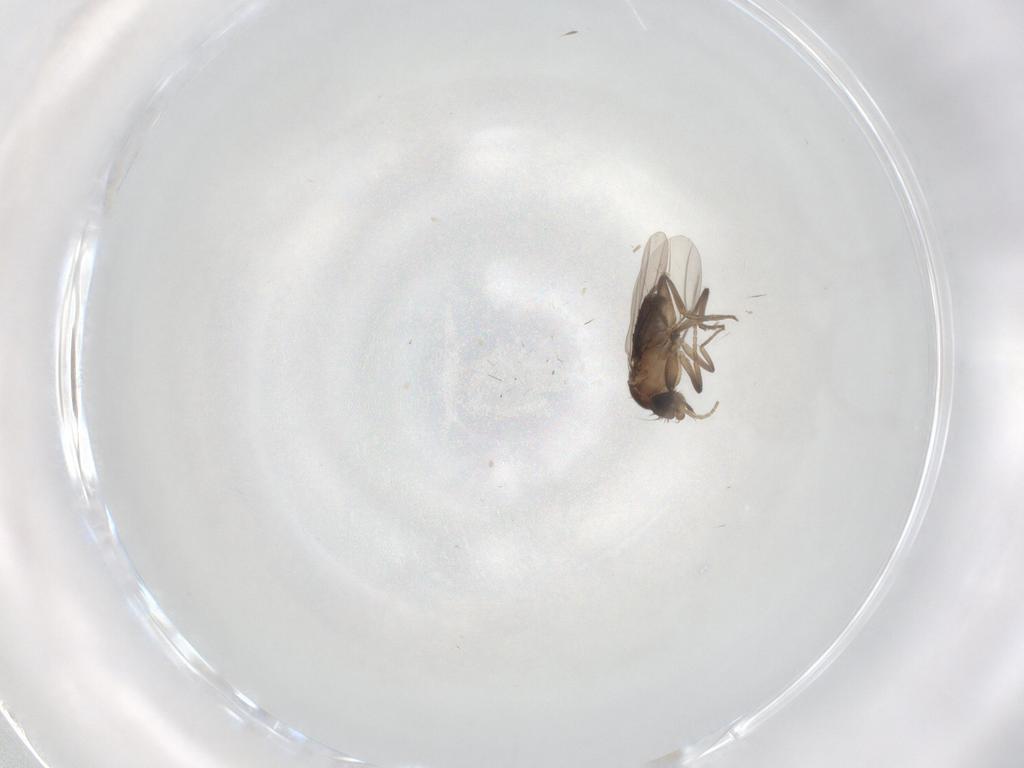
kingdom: Animalia
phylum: Arthropoda
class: Insecta
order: Diptera
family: Phoridae
